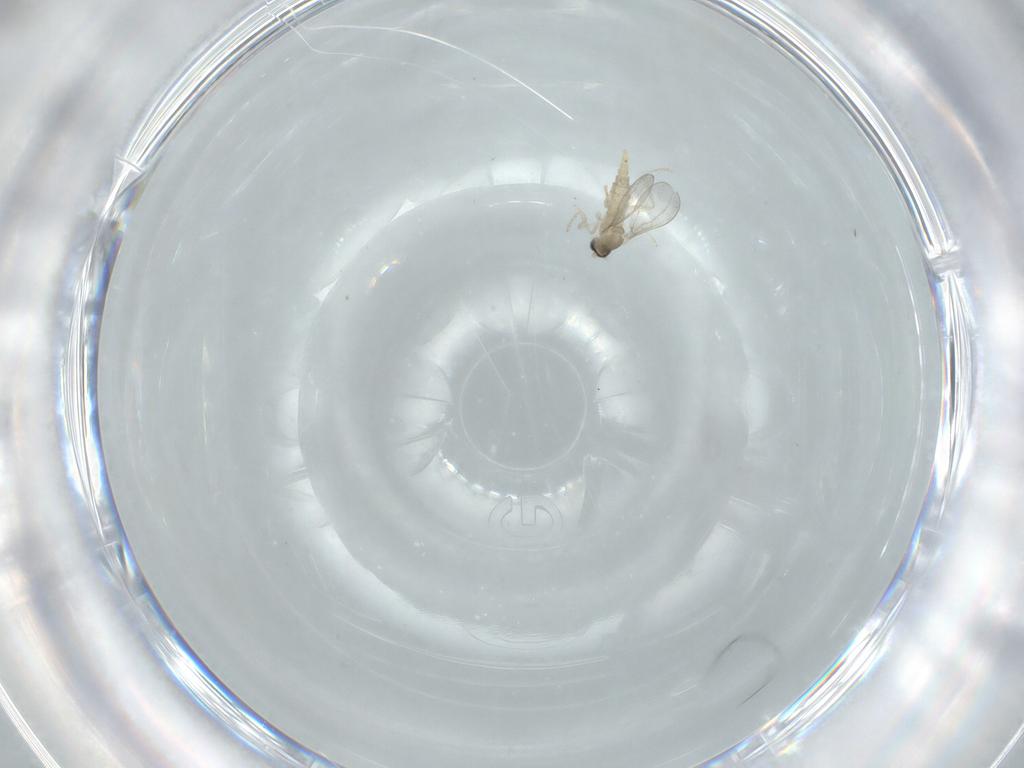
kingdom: Animalia
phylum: Arthropoda
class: Insecta
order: Diptera
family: Cecidomyiidae
